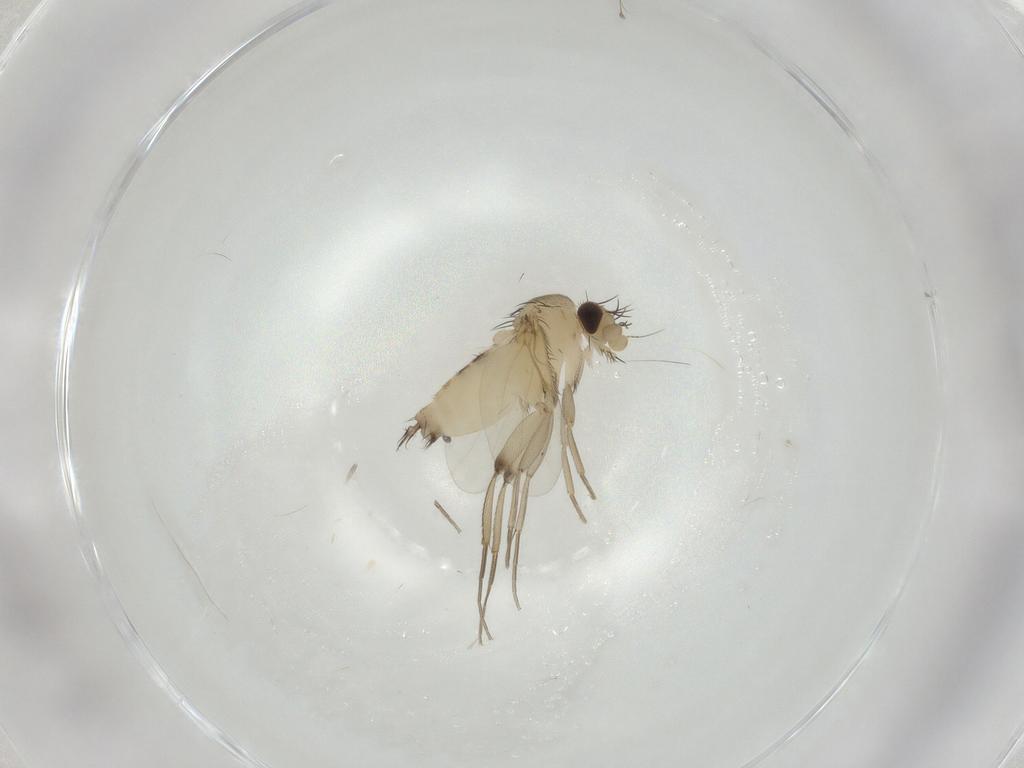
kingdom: Animalia
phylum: Arthropoda
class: Insecta
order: Diptera
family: Phoridae
